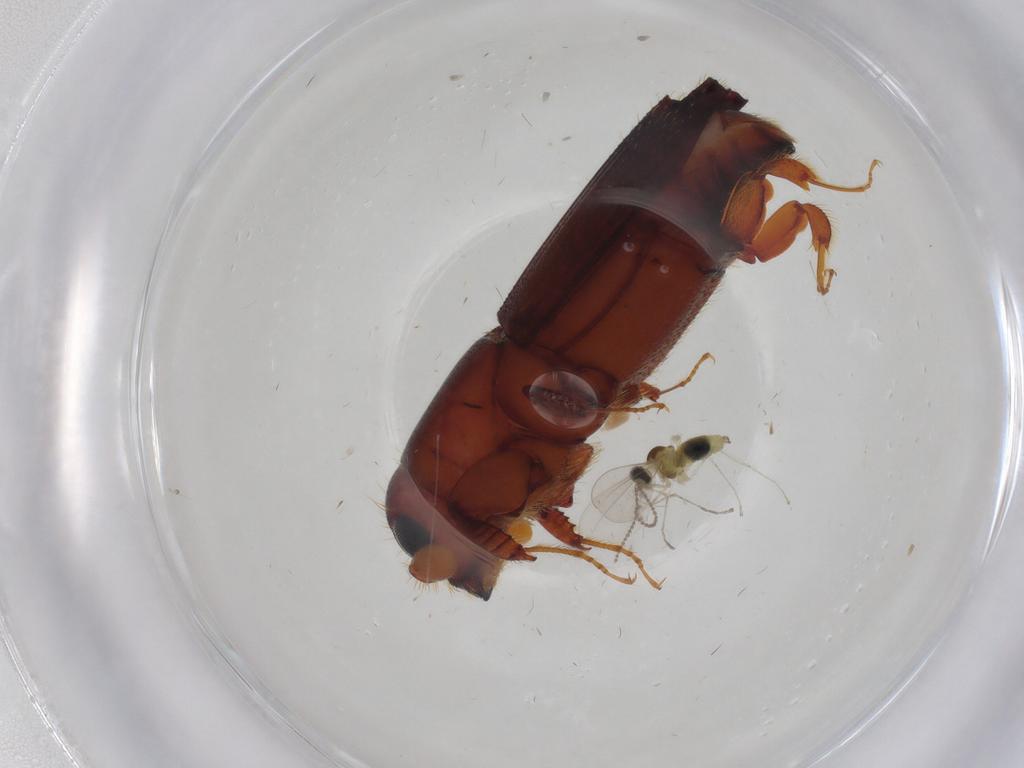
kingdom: Animalia
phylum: Arthropoda
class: Insecta
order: Diptera
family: Cecidomyiidae
